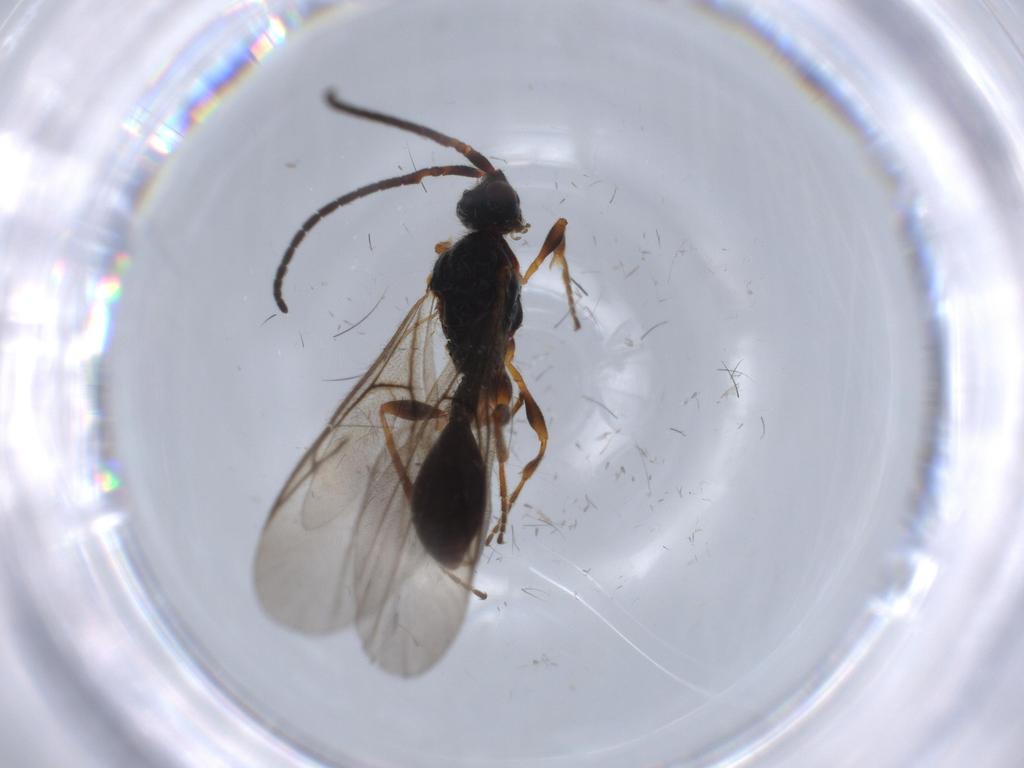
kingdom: Animalia
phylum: Arthropoda
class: Insecta
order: Hymenoptera
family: Diapriidae
